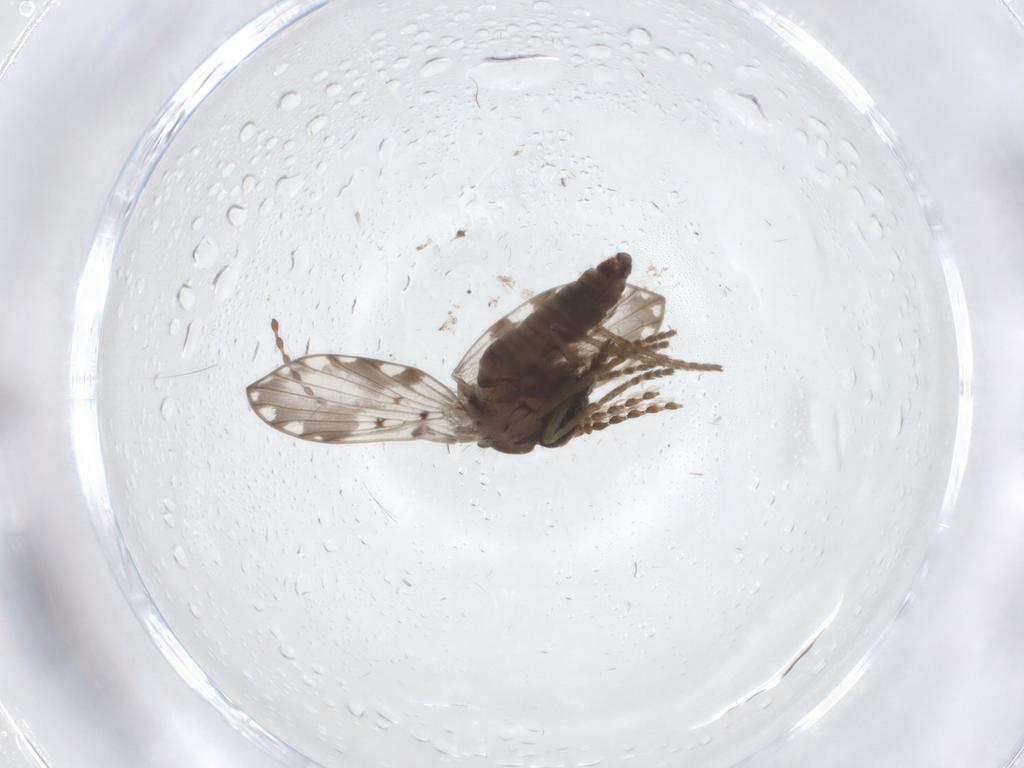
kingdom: Animalia
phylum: Arthropoda
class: Insecta
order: Diptera
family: Psychodidae
